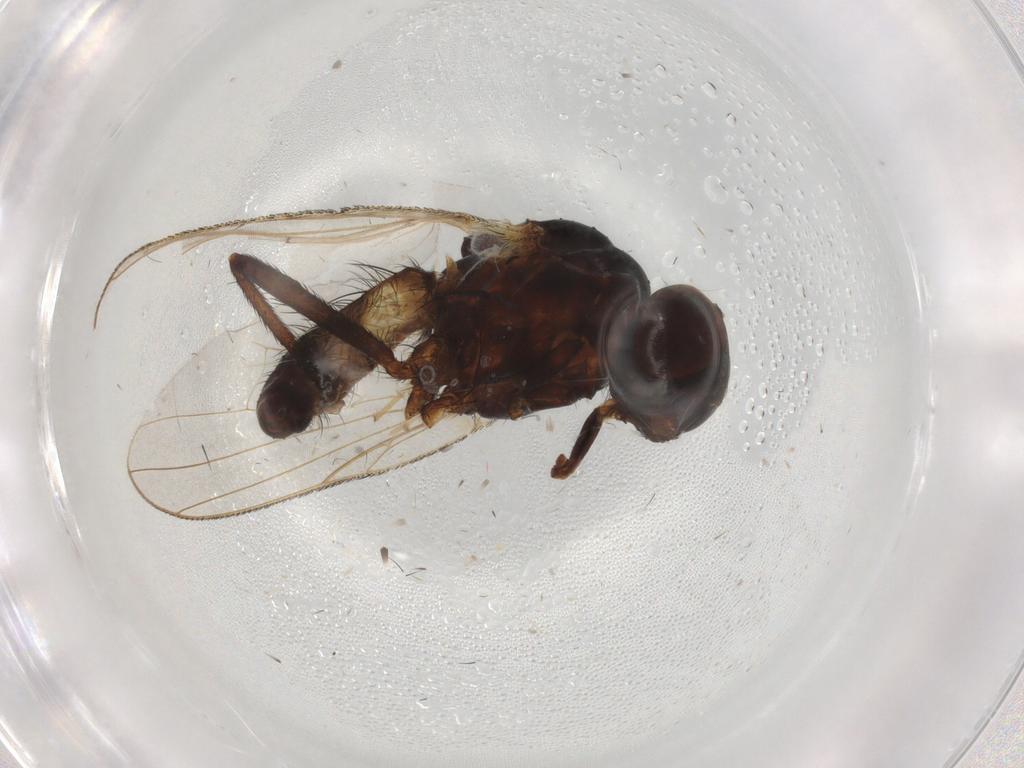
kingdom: Animalia
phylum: Arthropoda
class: Insecta
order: Diptera
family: Anthomyiidae
